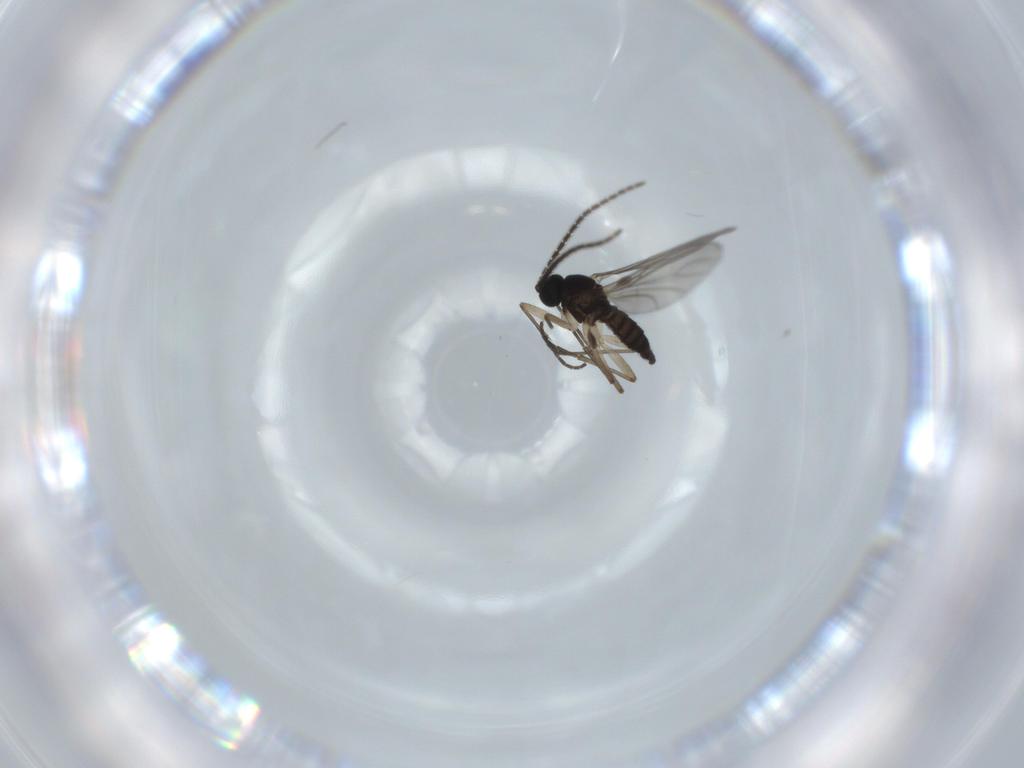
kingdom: Animalia
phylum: Arthropoda
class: Insecta
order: Diptera
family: Sciaridae
